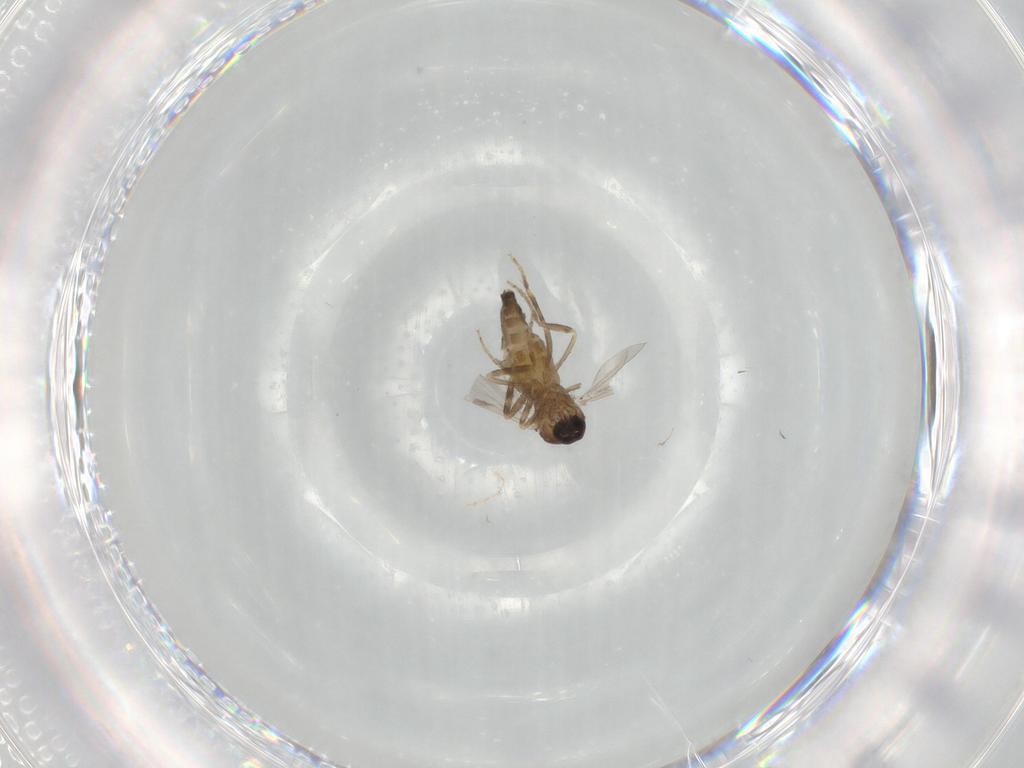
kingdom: Animalia
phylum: Arthropoda
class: Insecta
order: Diptera
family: Ceratopogonidae
